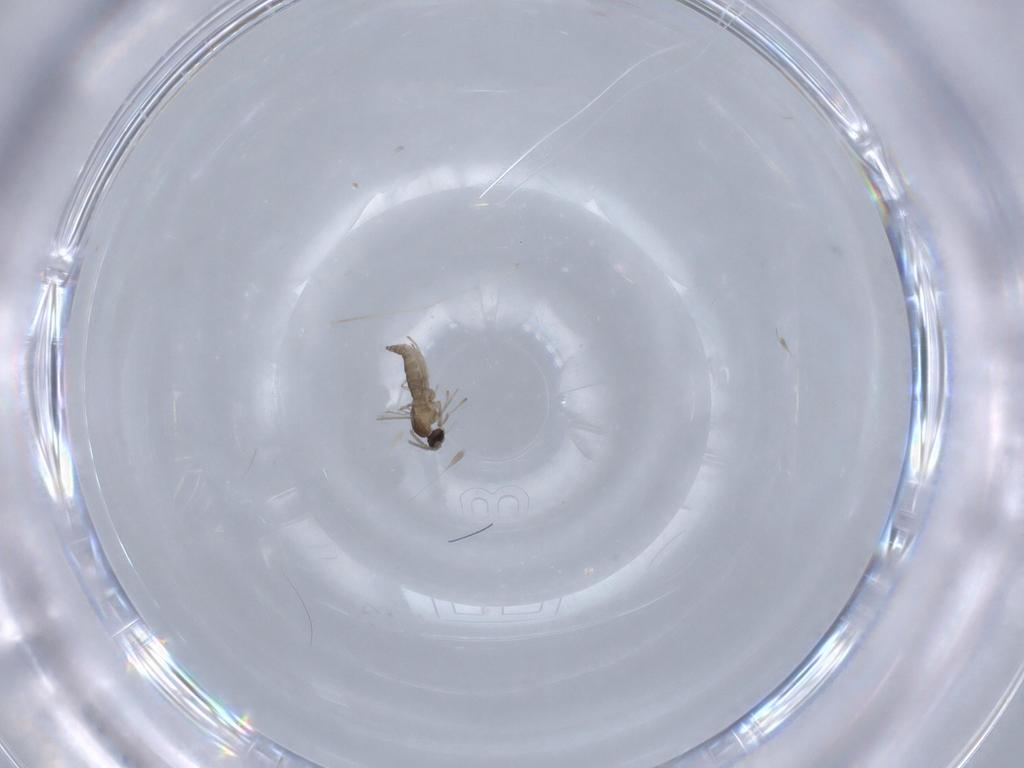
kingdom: Animalia
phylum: Arthropoda
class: Insecta
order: Diptera
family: Cecidomyiidae
